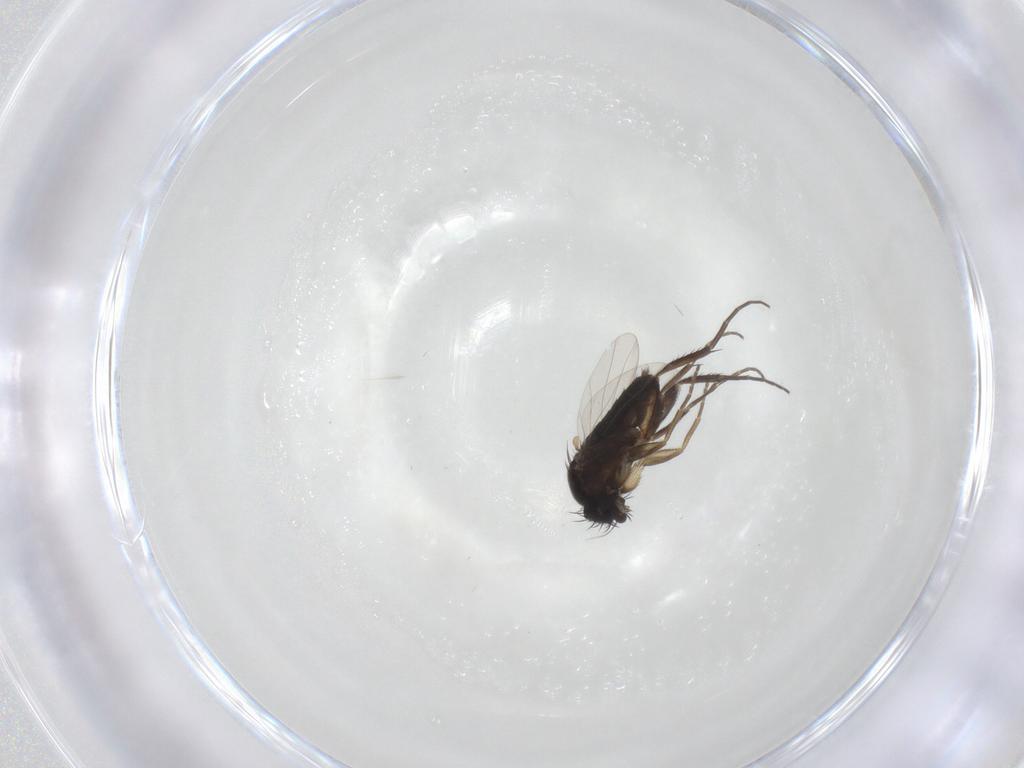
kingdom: Animalia
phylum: Arthropoda
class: Insecta
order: Diptera
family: Phoridae
